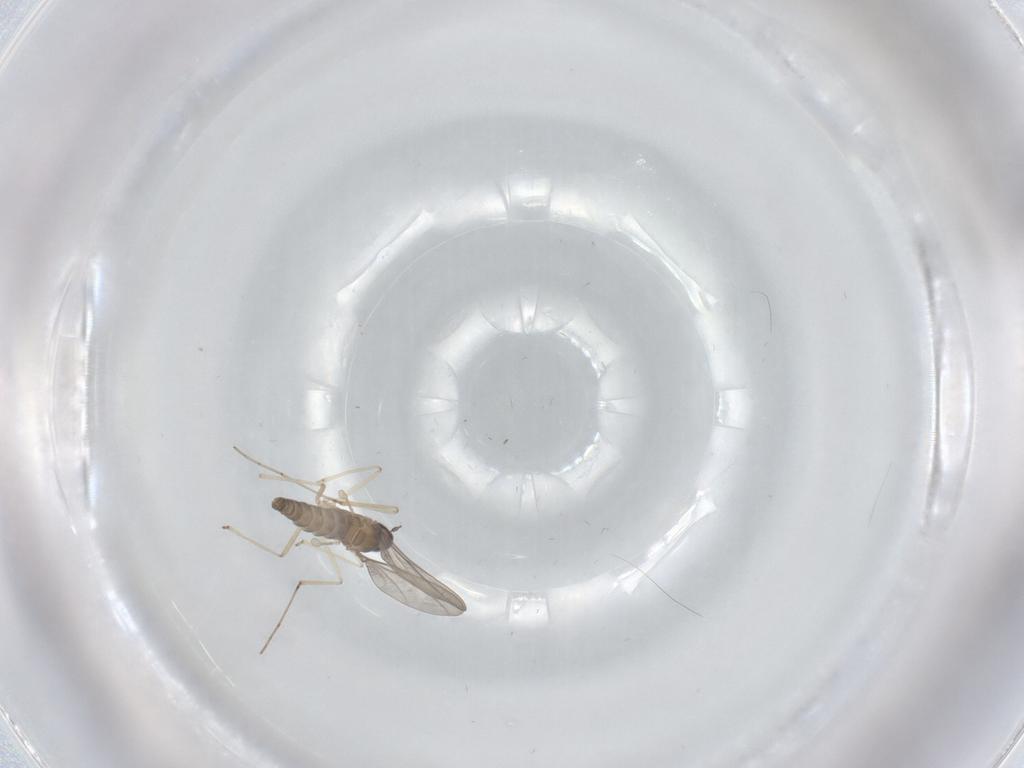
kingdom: Animalia
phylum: Arthropoda
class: Insecta
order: Diptera
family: Cecidomyiidae
